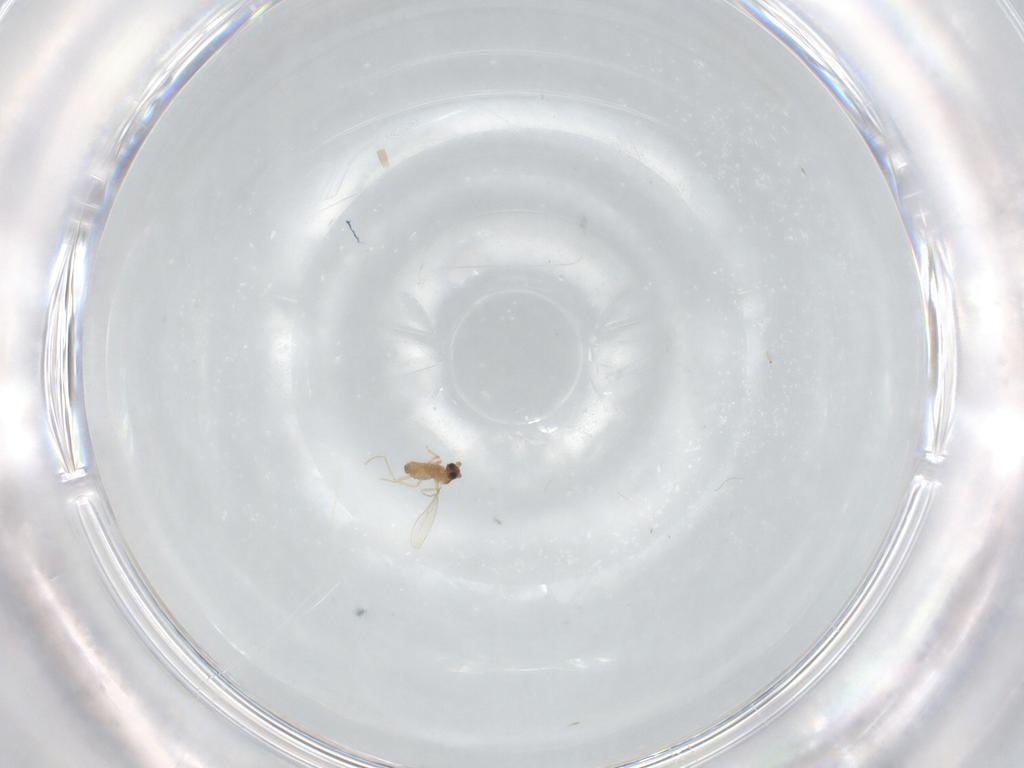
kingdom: Animalia
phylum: Arthropoda
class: Insecta
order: Diptera
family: Cecidomyiidae
